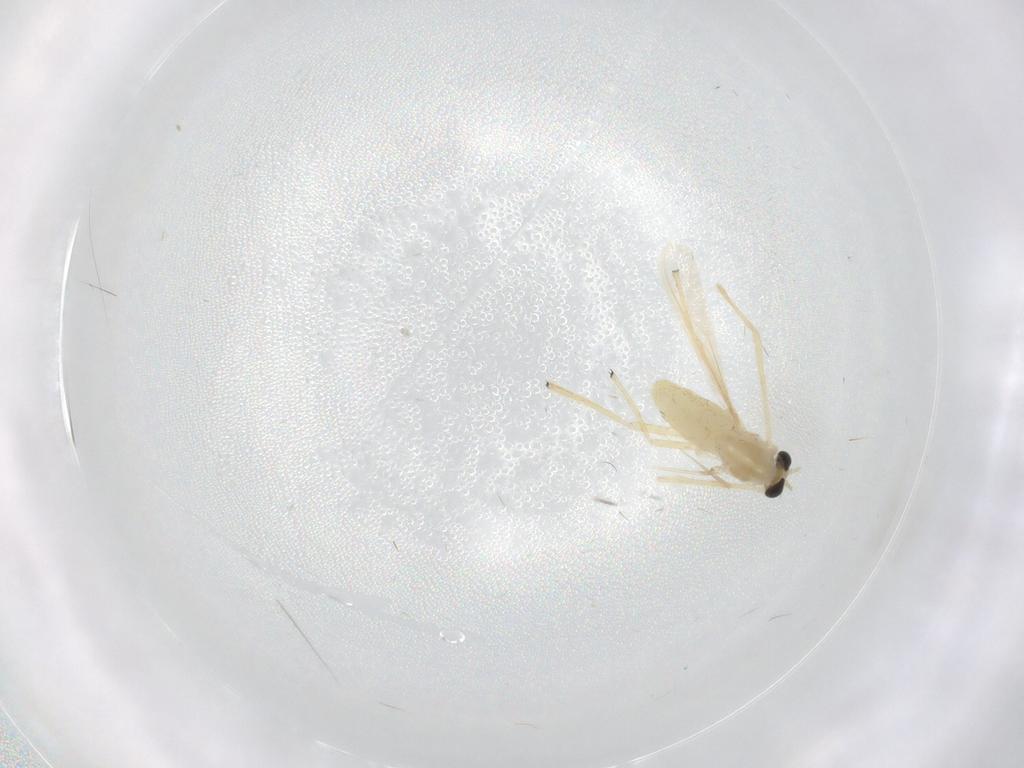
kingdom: Animalia
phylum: Arthropoda
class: Insecta
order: Diptera
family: Chironomidae
